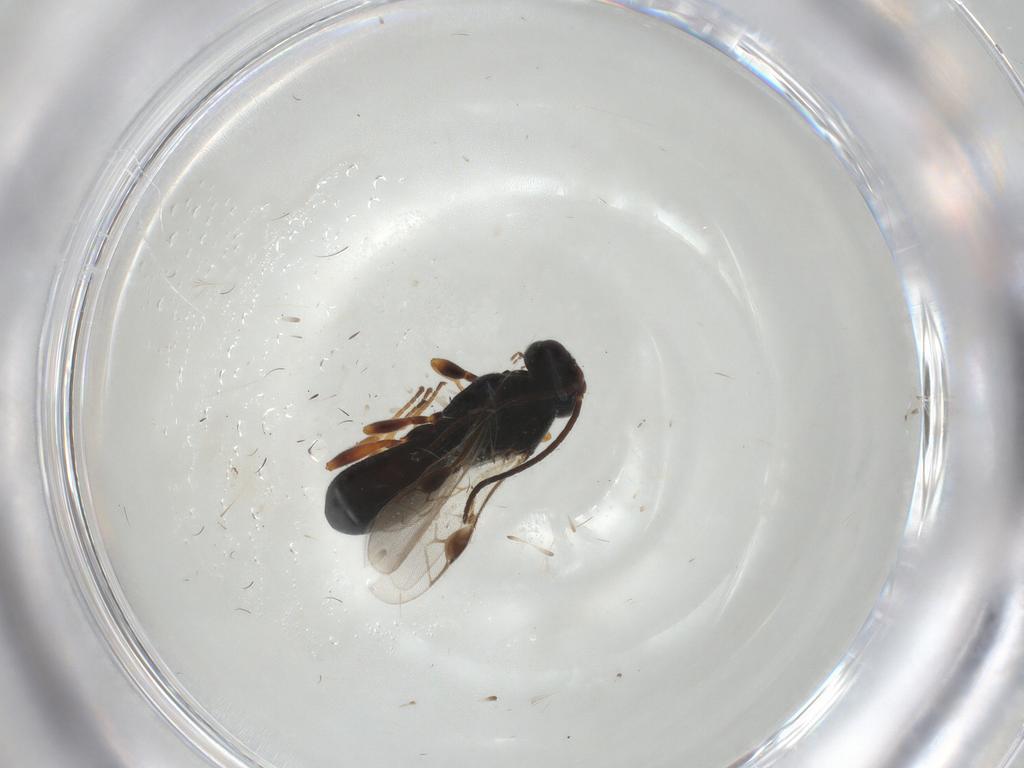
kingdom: Animalia
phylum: Arthropoda
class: Insecta
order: Hymenoptera
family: Braconidae
